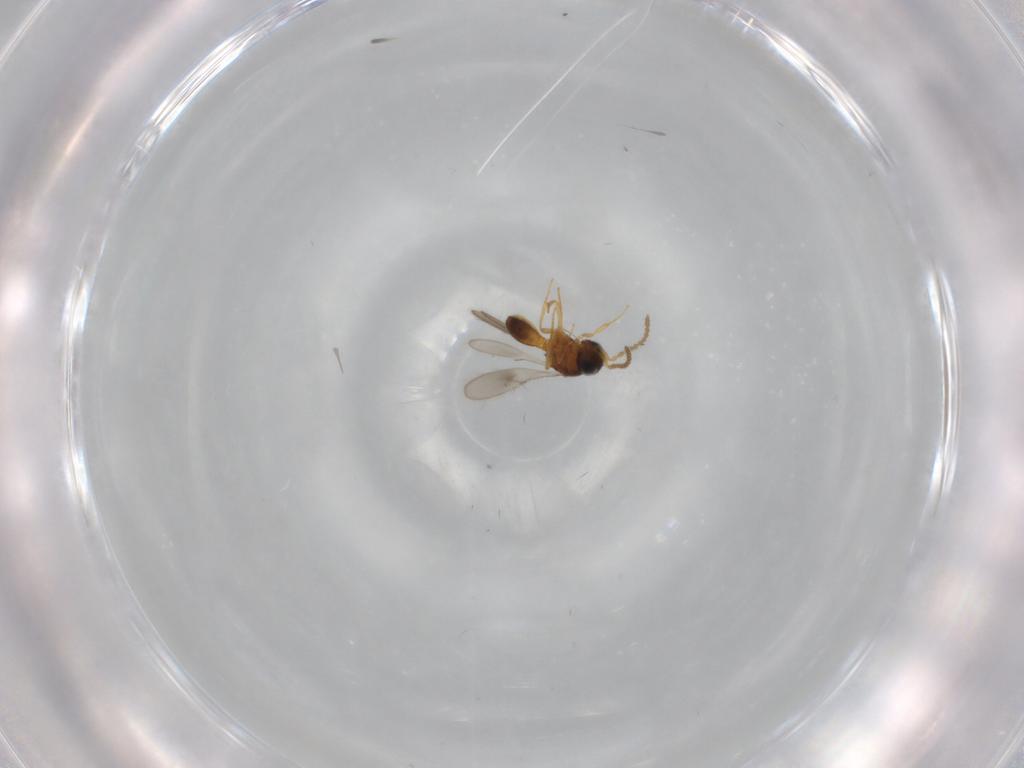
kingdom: Animalia
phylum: Arthropoda
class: Insecta
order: Hymenoptera
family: Scelionidae
